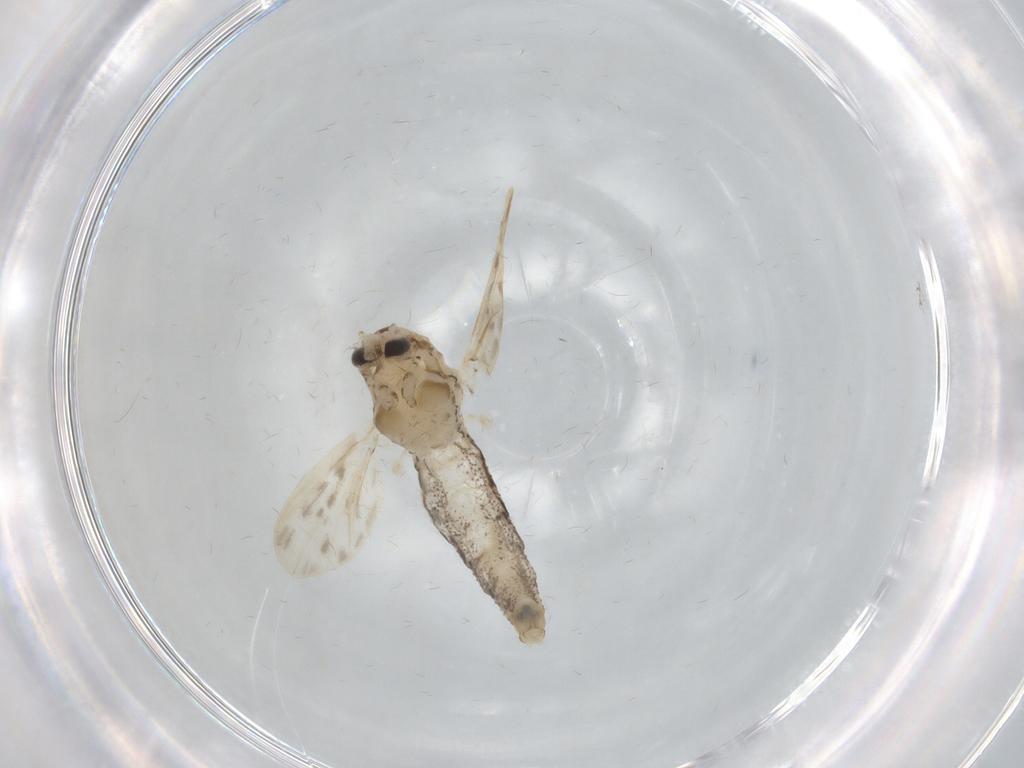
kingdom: Animalia
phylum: Arthropoda
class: Insecta
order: Diptera
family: Chaoboridae
